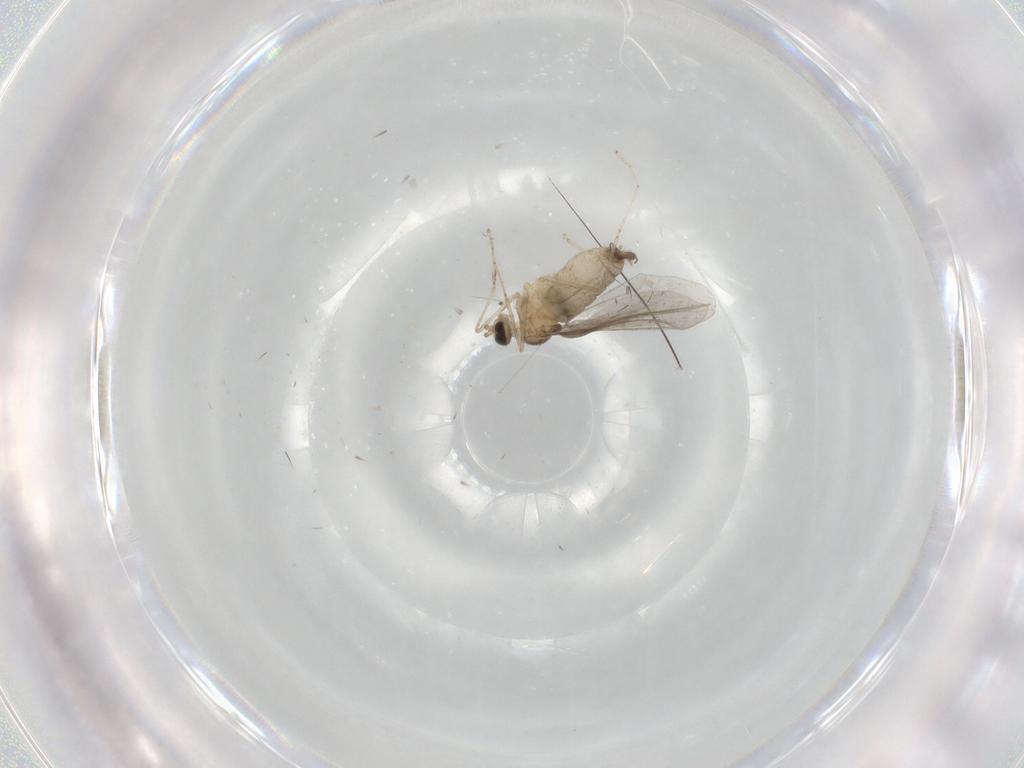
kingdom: Animalia
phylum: Arthropoda
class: Insecta
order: Diptera
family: Cecidomyiidae
